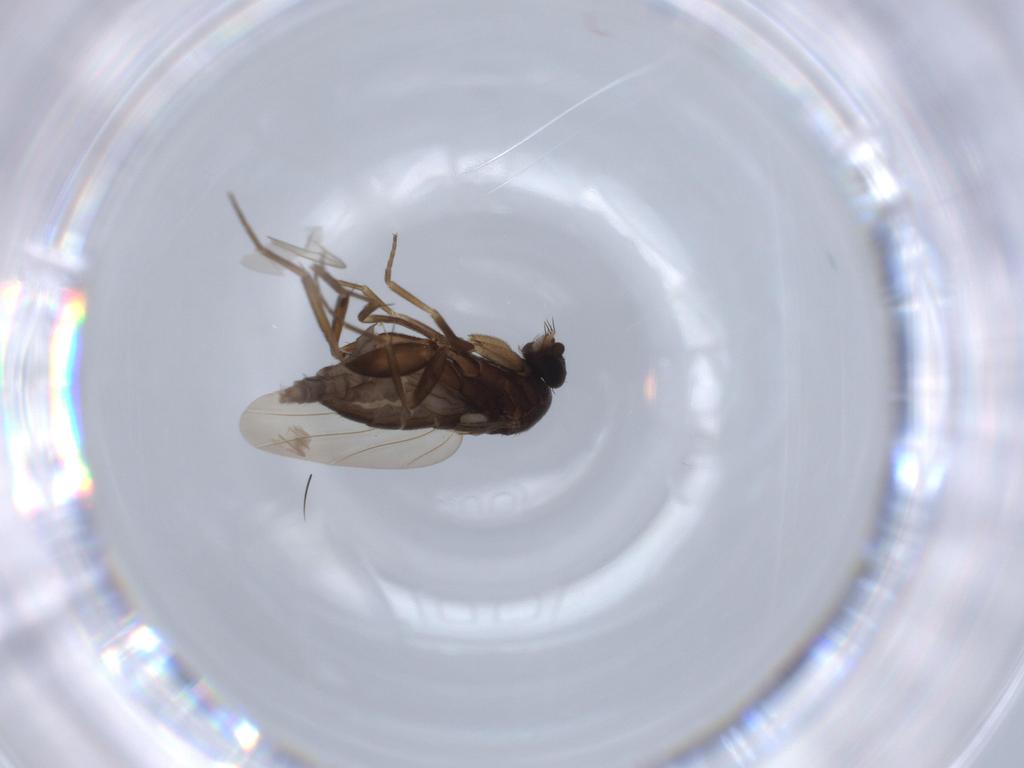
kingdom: Animalia
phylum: Arthropoda
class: Insecta
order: Diptera
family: Phoridae
